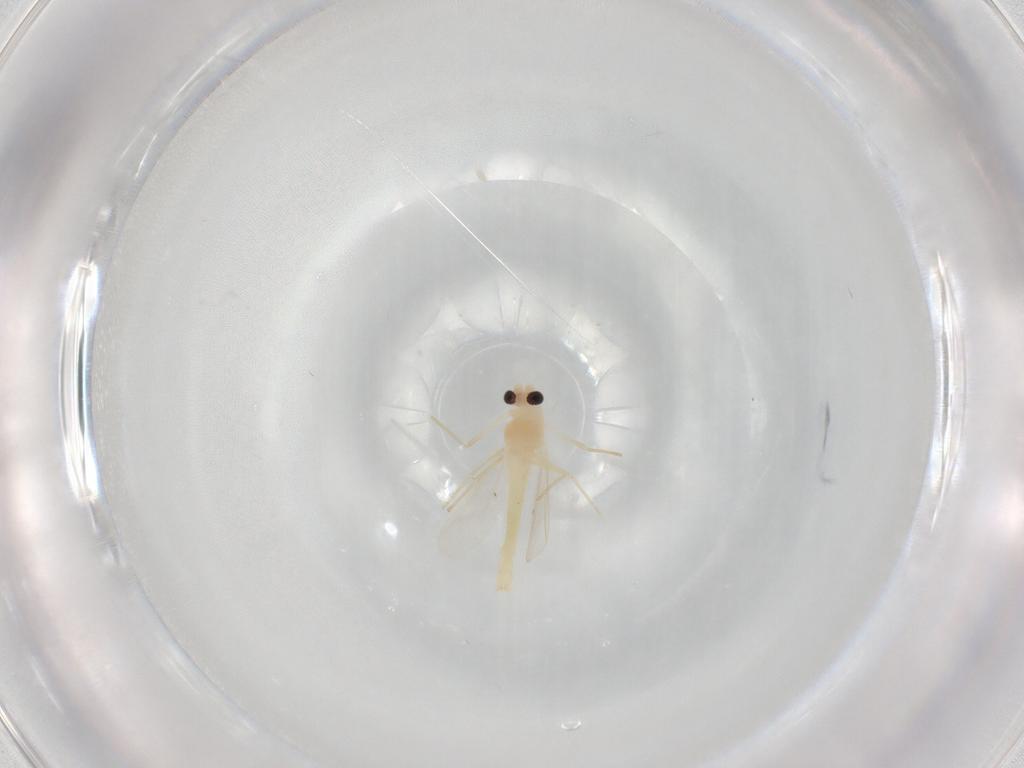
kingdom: Animalia
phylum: Arthropoda
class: Insecta
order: Diptera
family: Chironomidae
